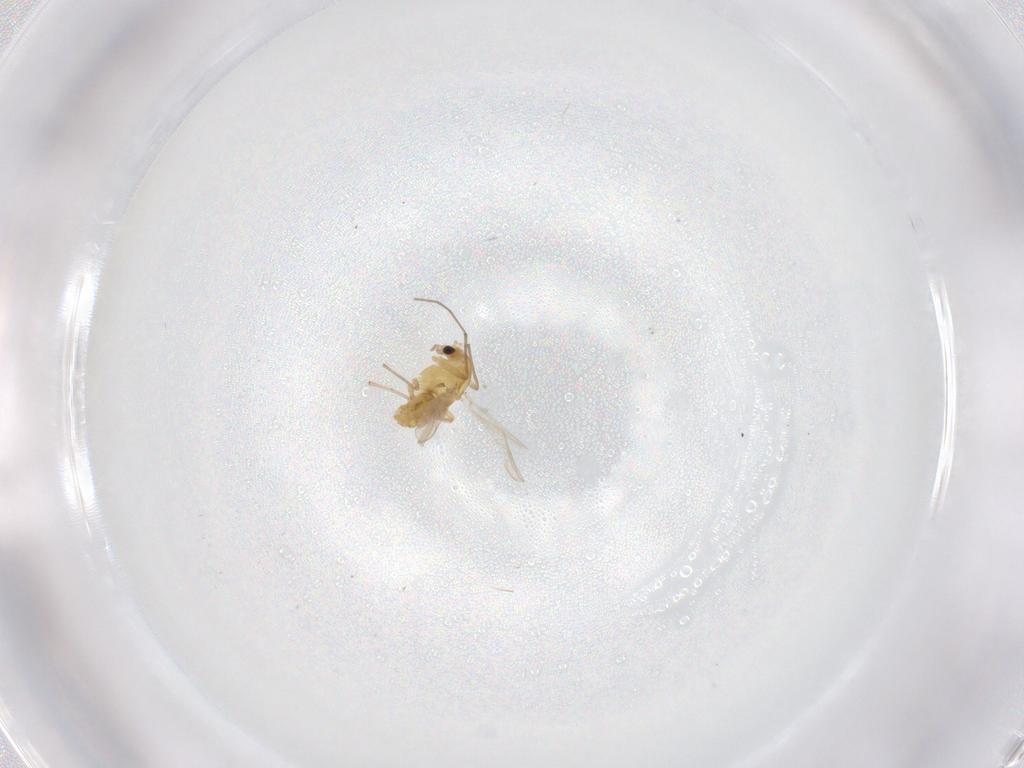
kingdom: Animalia
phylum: Arthropoda
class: Insecta
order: Diptera
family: Chironomidae
